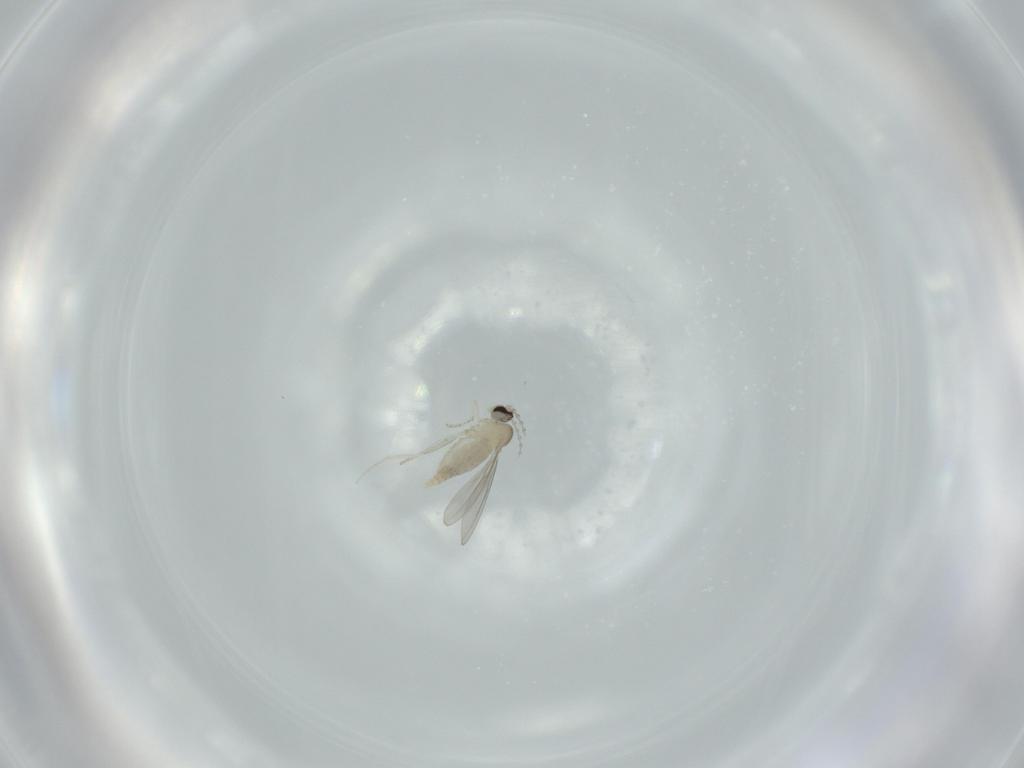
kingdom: Animalia
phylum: Arthropoda
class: Insecta
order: Diptera
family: Cecidomyiidae
